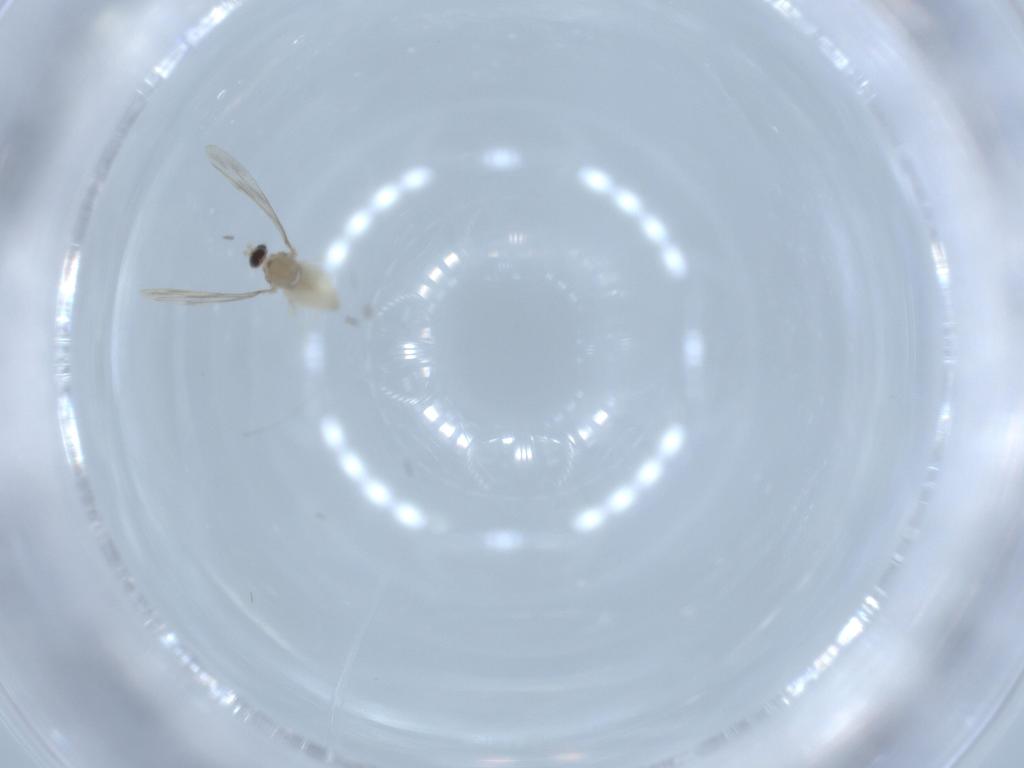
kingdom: Animalia
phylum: Arthropoda
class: Insecta
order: Diptera
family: Cecidomyiidae
